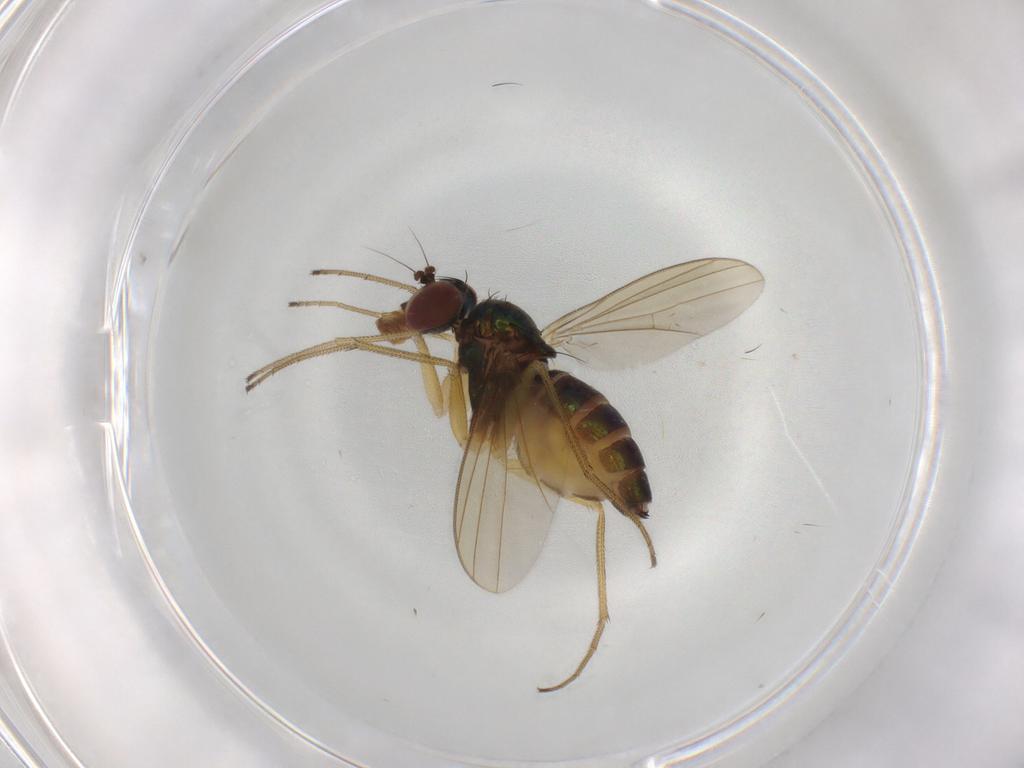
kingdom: Animalia
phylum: Arthropoda
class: Insecta
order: Diptera
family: Dolichopodidae
